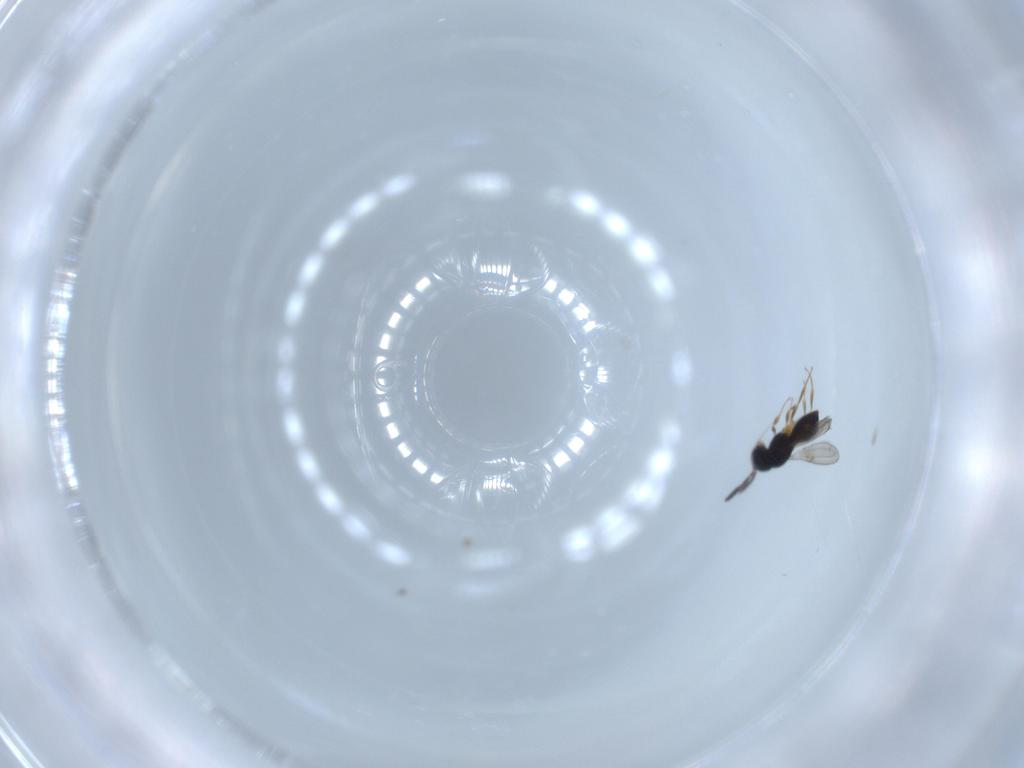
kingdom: Animalia
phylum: Arthropoda
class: Insecta
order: Hymenoptera
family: Scelionidae
